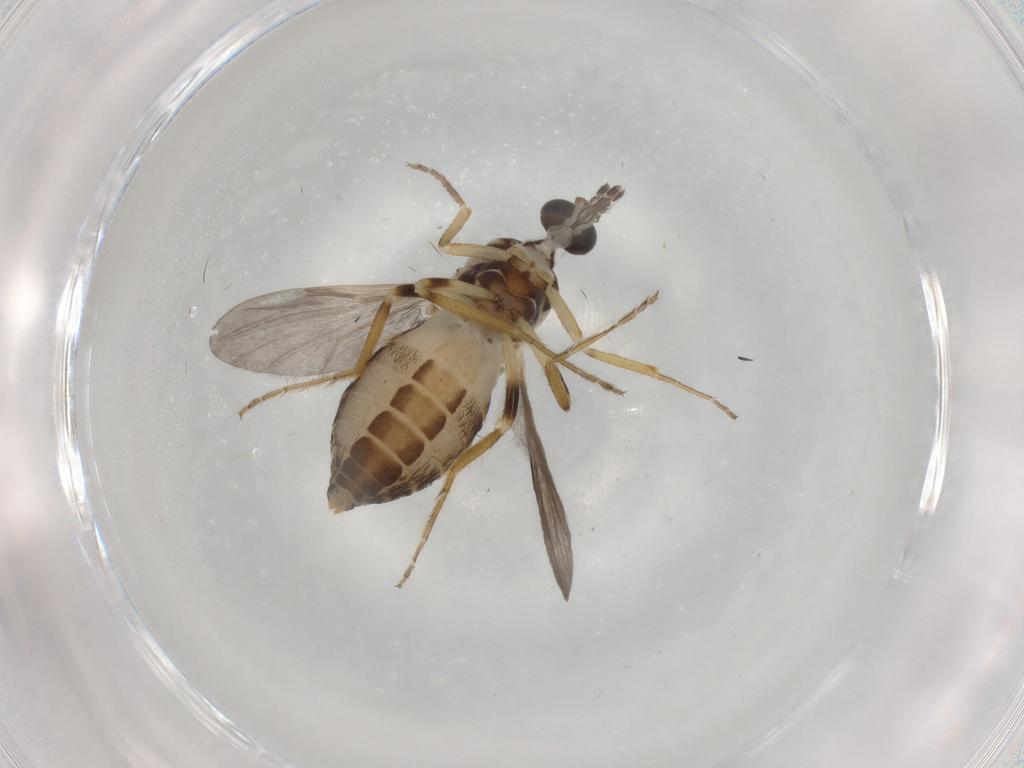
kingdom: Animalia
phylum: Arthropoda
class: Insecta
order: Diptera
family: Ceratopogonidae
